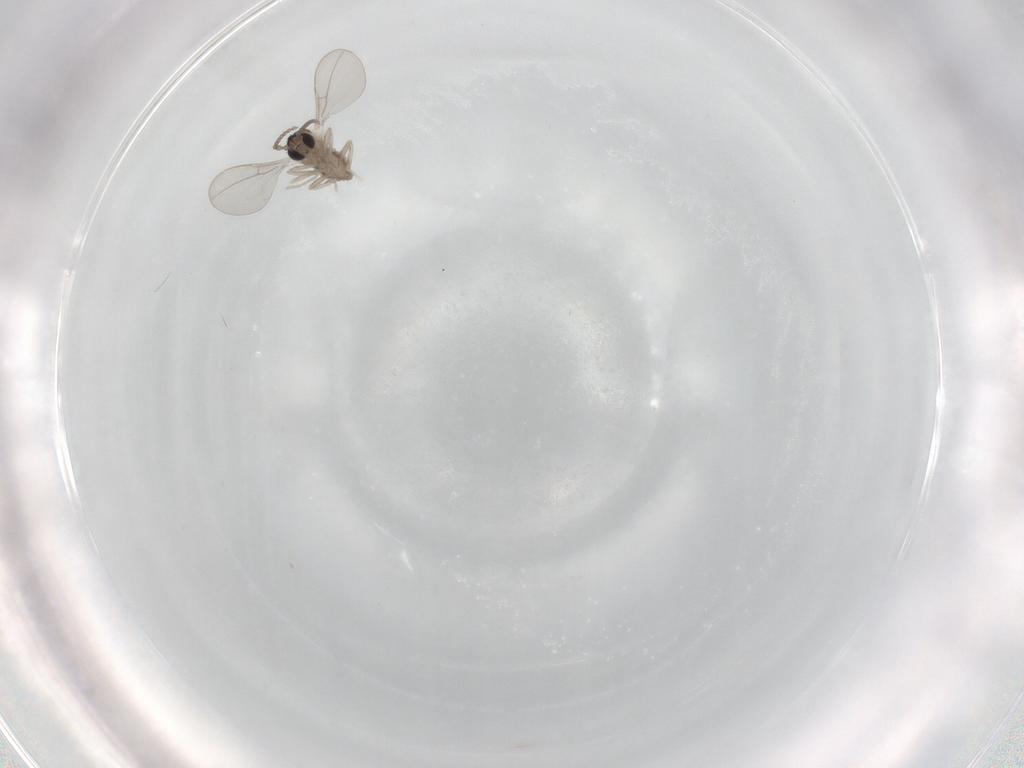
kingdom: Animalia
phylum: Arthropoda
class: Insecta
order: Diptera
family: Cecidomyiidae
